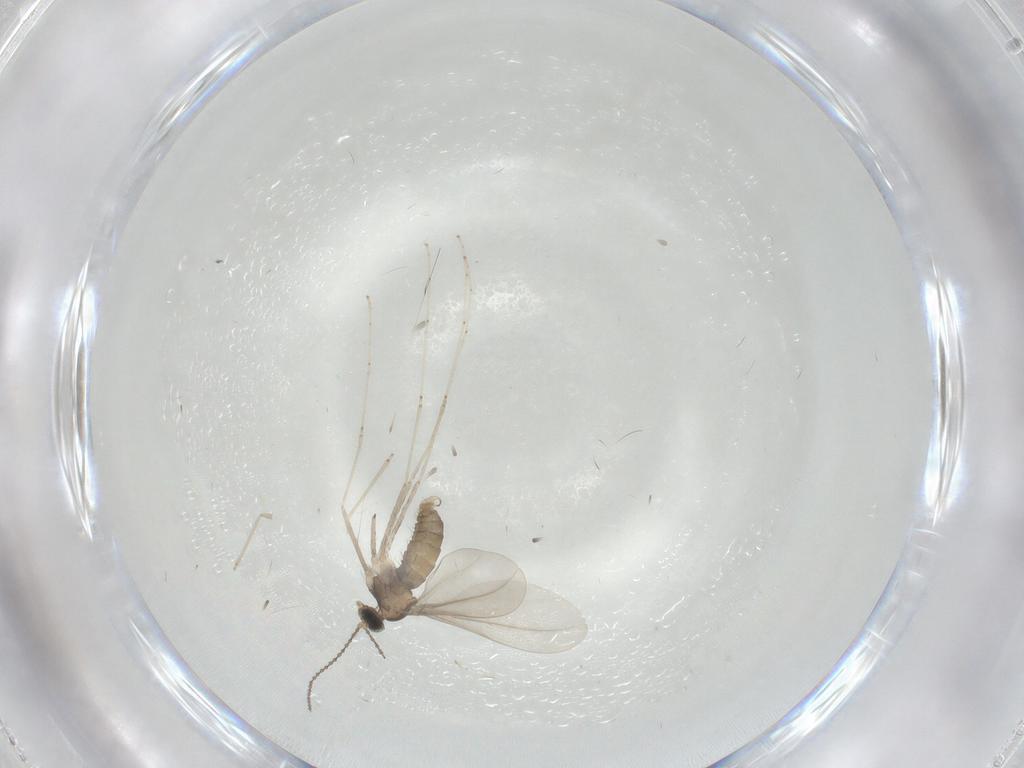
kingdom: Animalia
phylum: Arthropoda
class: Insecta
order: Diptera
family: Cecidomyiidae
